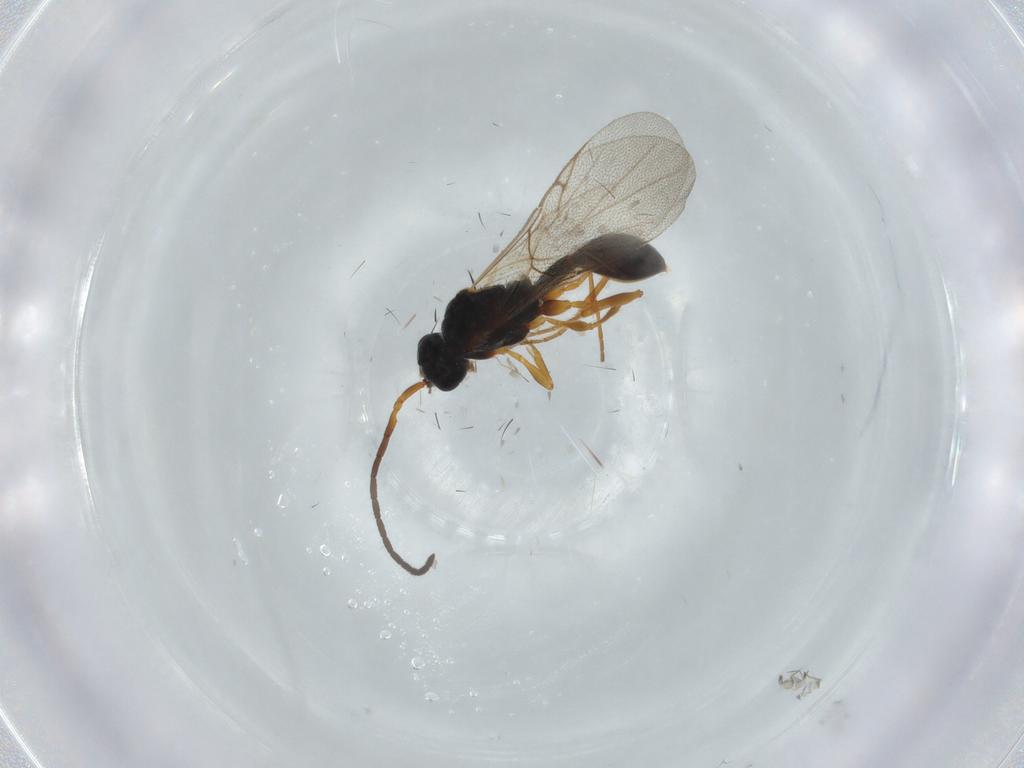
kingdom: Animalia
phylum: Arthropoda
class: Insecta
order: Hymenoptera
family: Diapriidae
